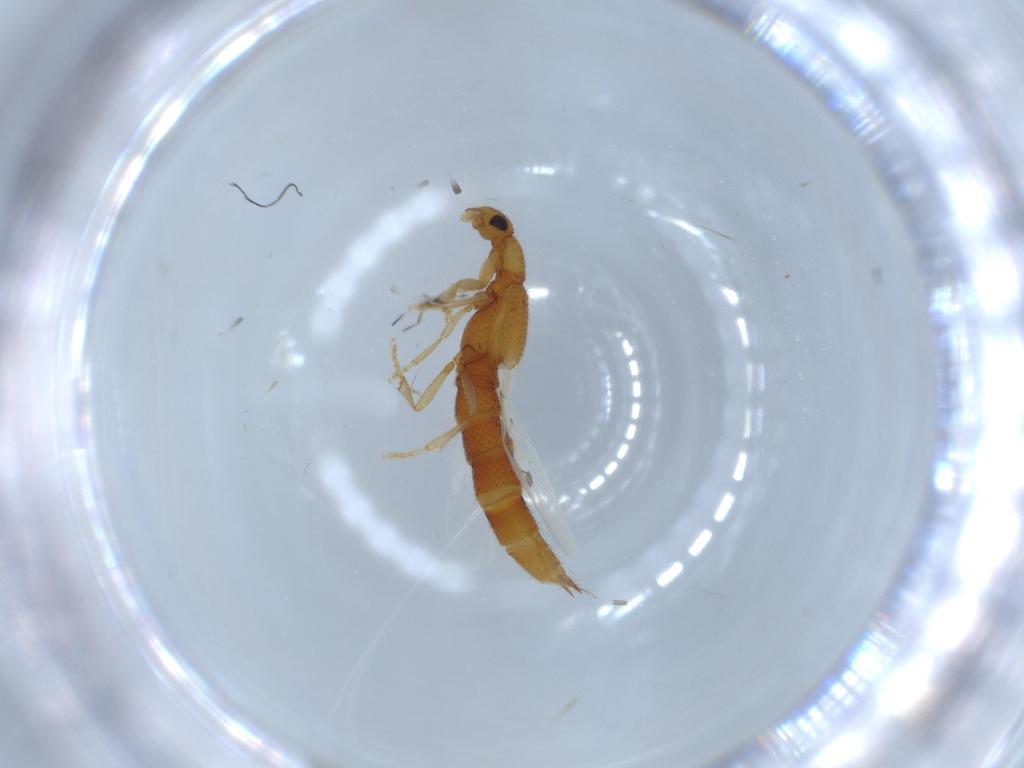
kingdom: Animalia
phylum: Arthropoda
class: Insecta
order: Coleoptera
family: Staphylinidae
